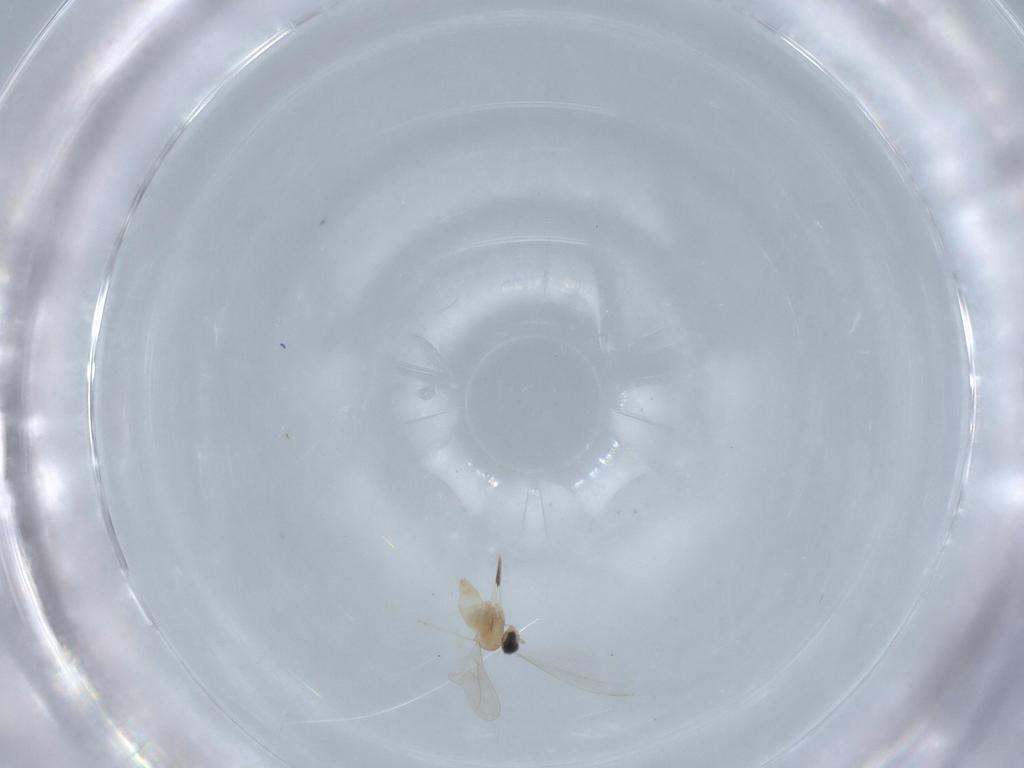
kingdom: Animalia
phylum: Arthropoda
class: Insecta
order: Diptera
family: Cecidomyiidae
